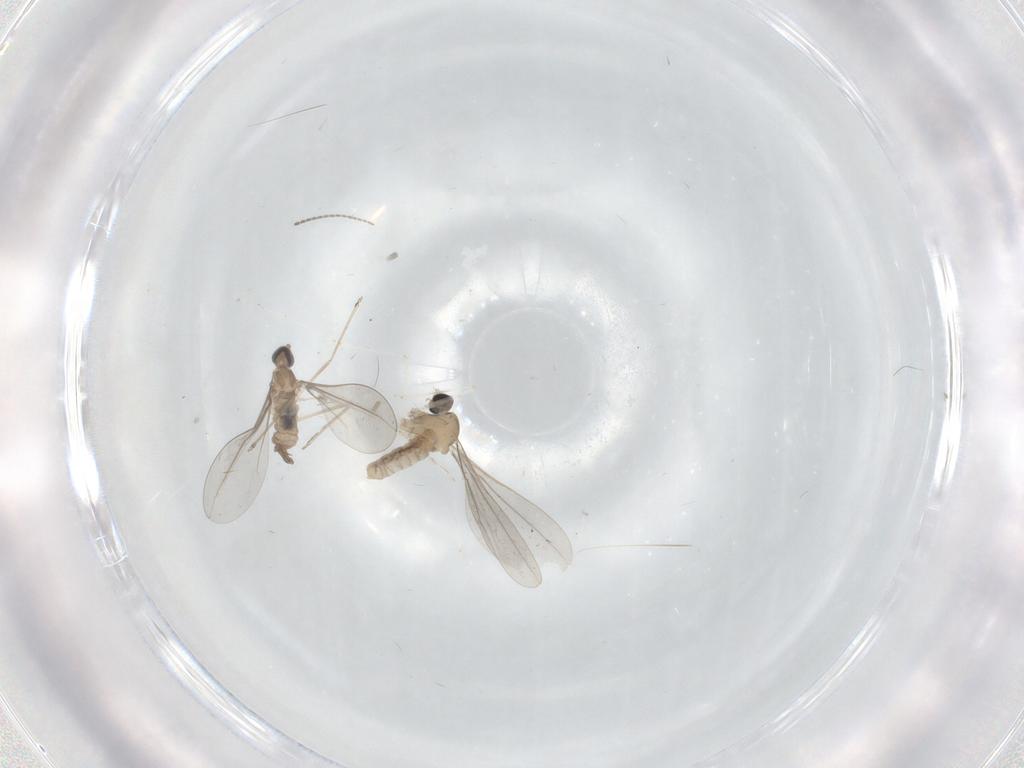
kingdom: Animalia
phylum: Arthropoda
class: Insecta
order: Diptera
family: Cecidomyiidae
